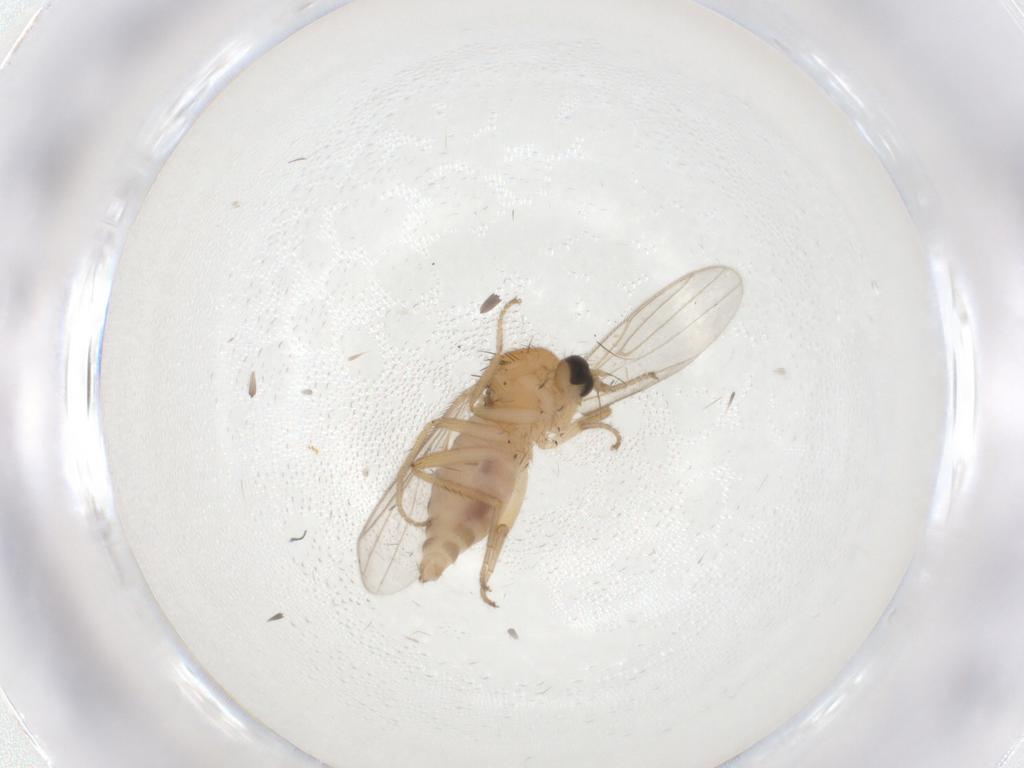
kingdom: Animalia
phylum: Arthropoda
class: Insecta
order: Diptera
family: Hybotidae
